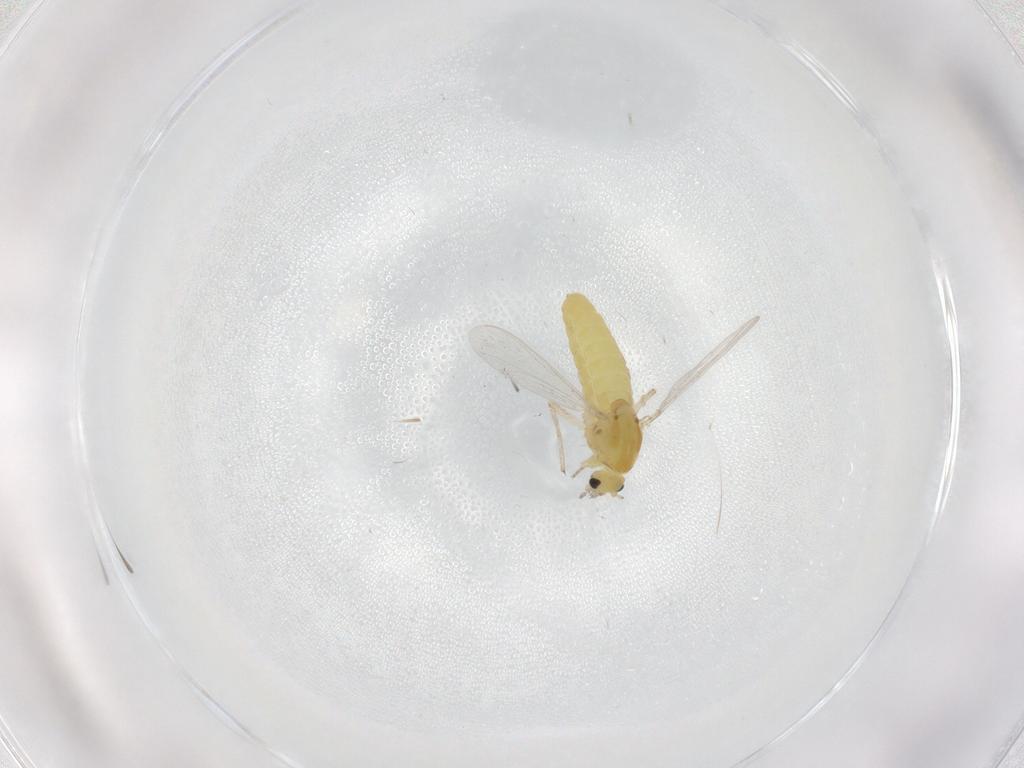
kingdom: Animalia
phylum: Arthropoda
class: Insecta
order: Diptera
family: Chironomidae
